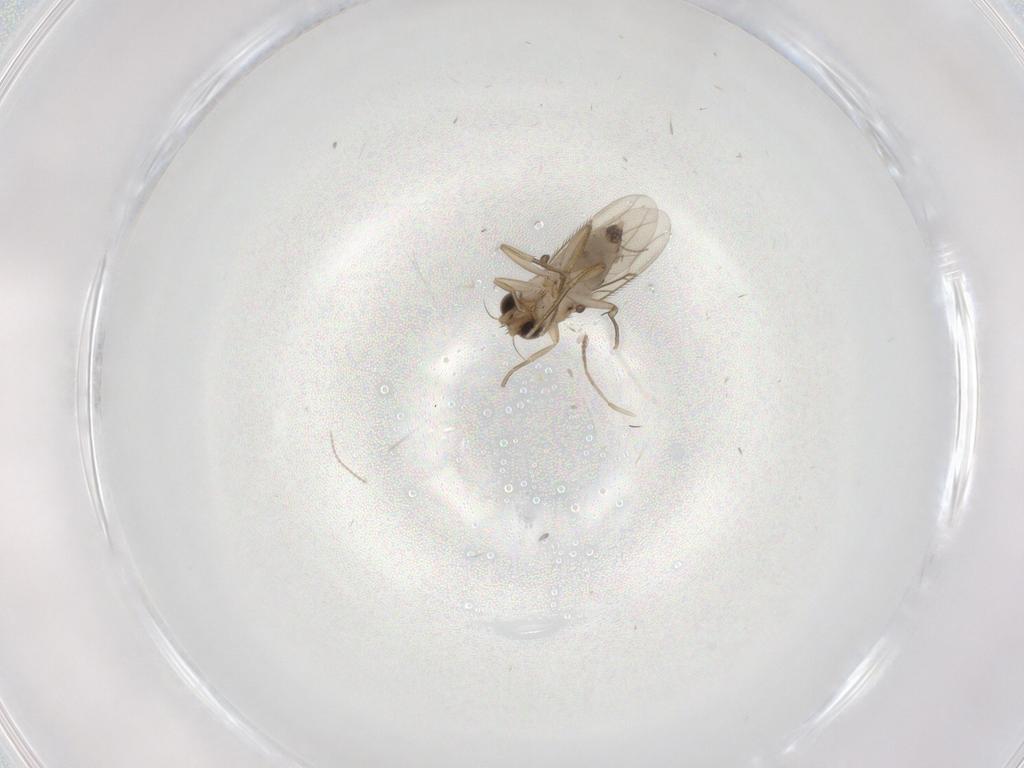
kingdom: Animalia
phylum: Arthropoda
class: Insecta
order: Diptera
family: Phoridae
